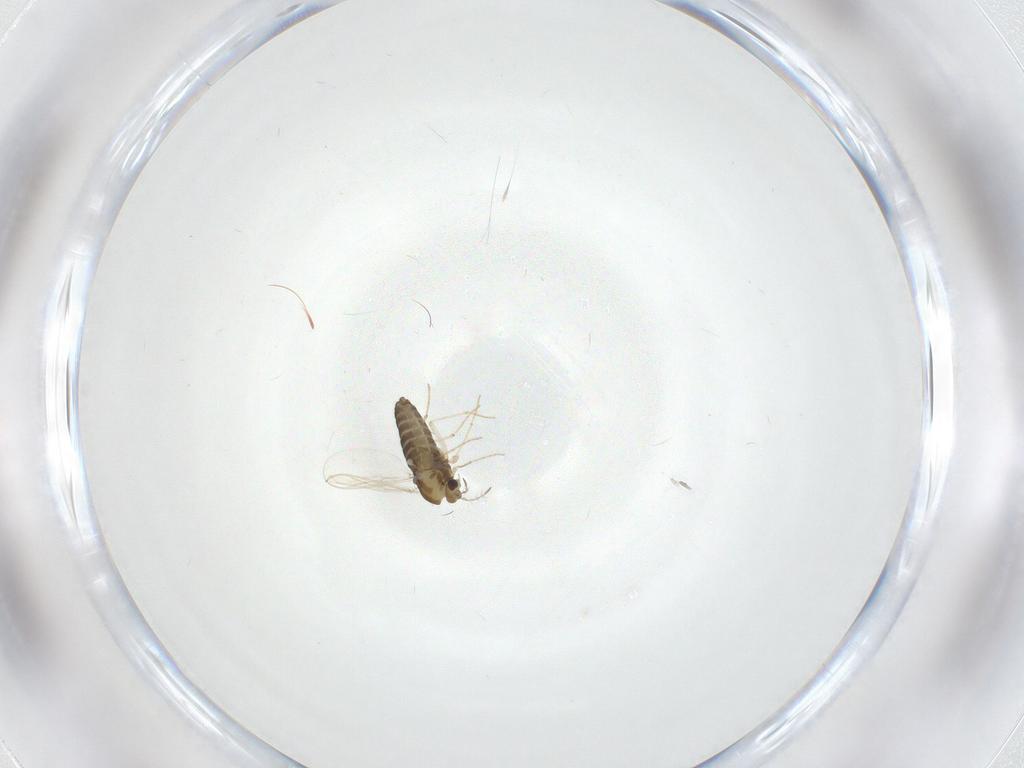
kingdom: Animalia
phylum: Arthropoda
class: Insecta
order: Diptera
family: Chironomidae
